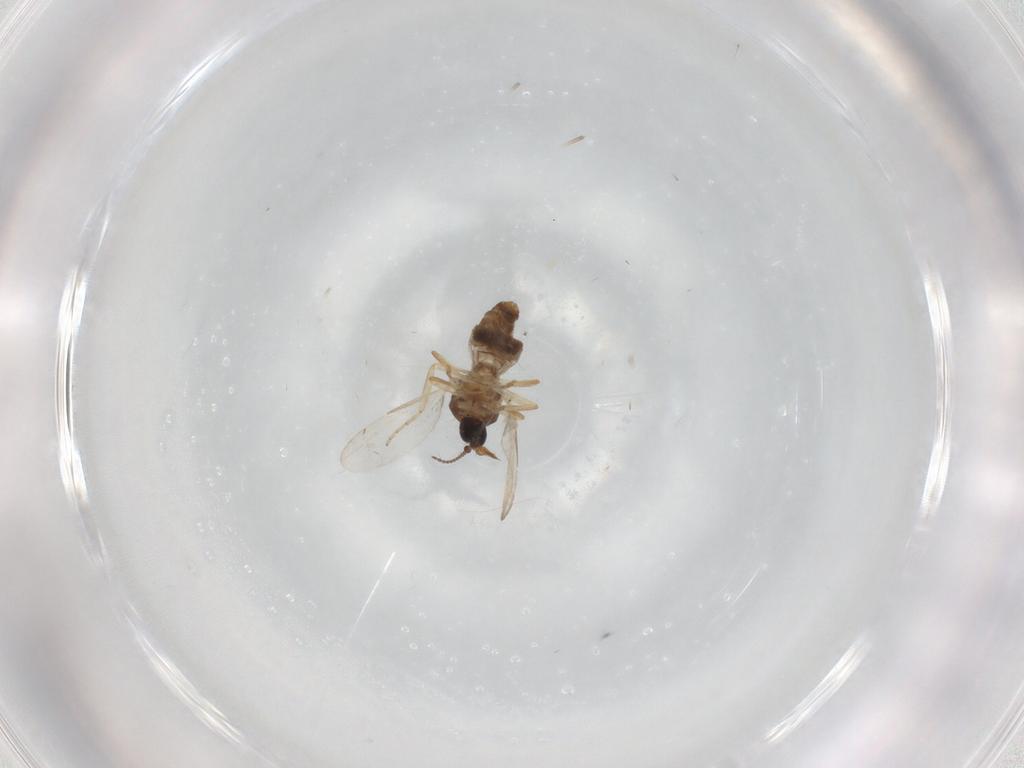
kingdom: Animalia
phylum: Arthropoda
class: Insecta
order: Diptera
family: Ceratopogonidae
